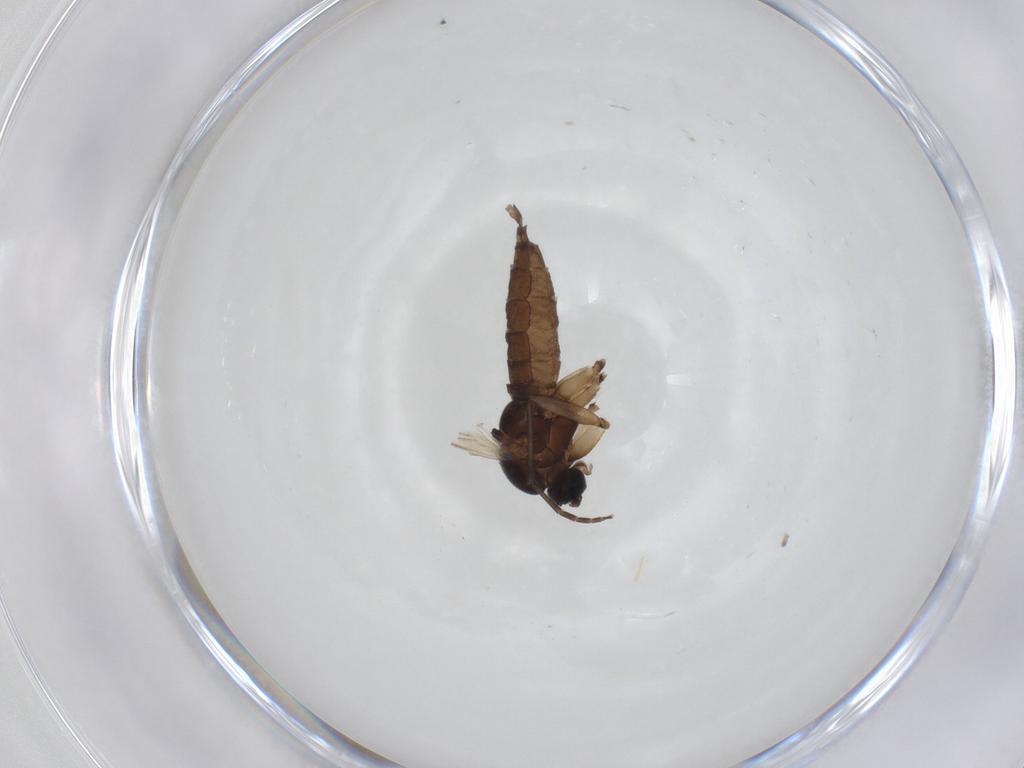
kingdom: Animalia
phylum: Arthropoda
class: Insecta
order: Diptera
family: Sciaridae
